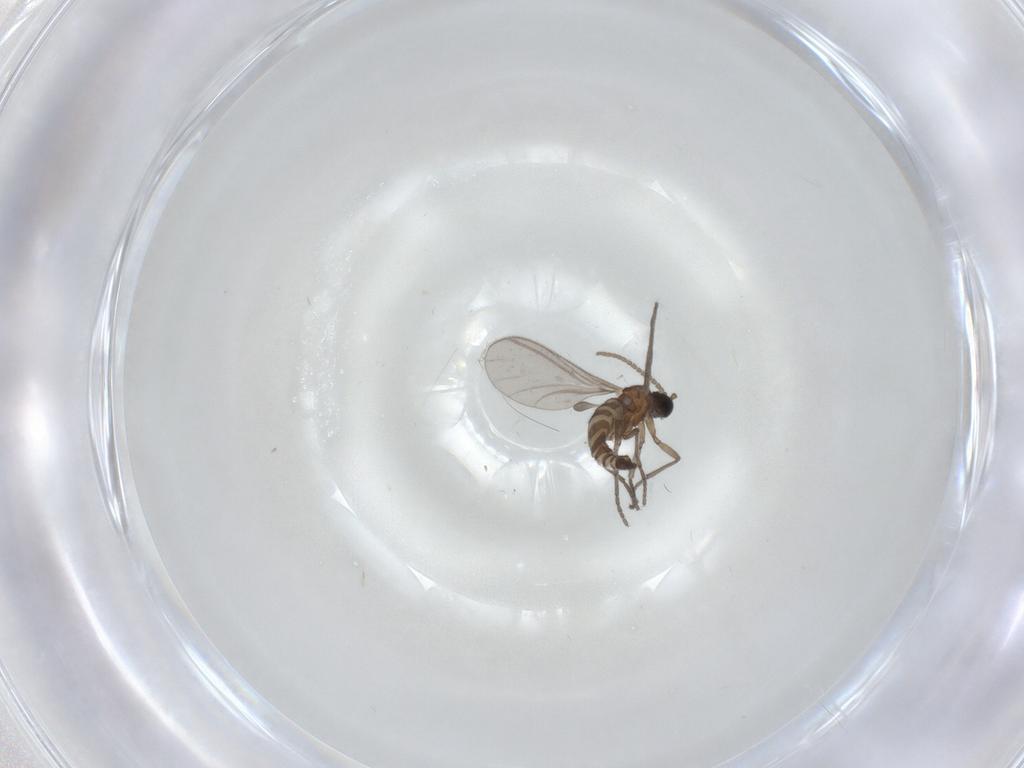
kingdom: Animalia
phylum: Arthropoda
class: Insecta
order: Diptera
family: Sciaridae
